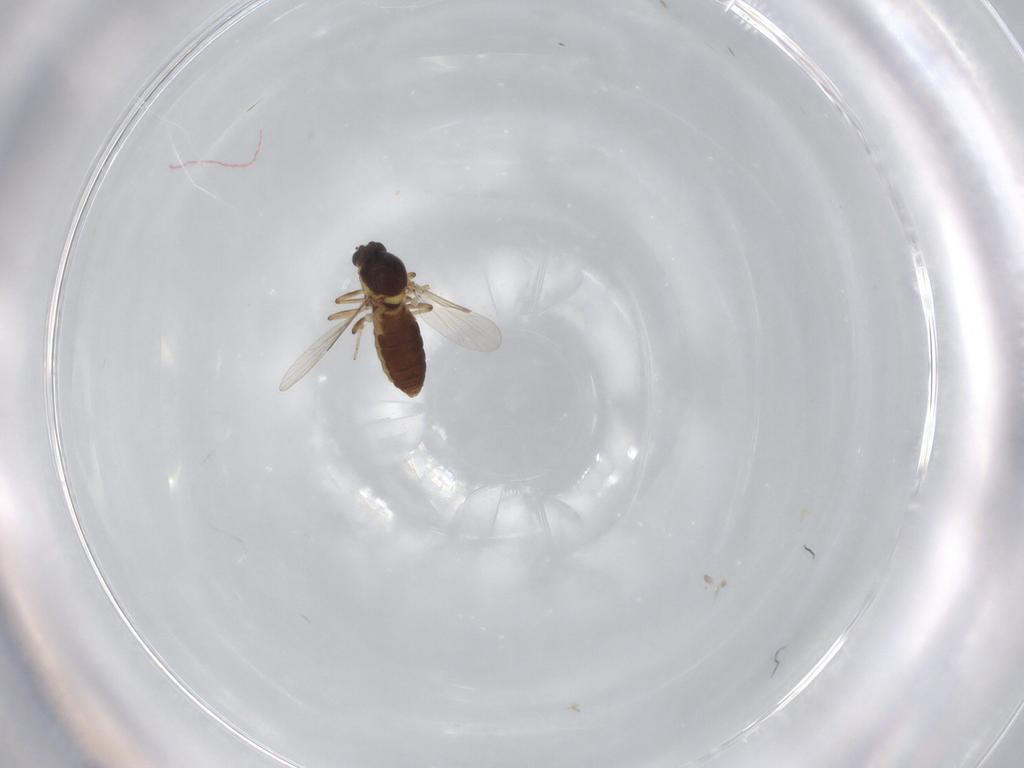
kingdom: Animalia
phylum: Arthropoda
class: Insecta
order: Diptera
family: Ceratopogonidae
